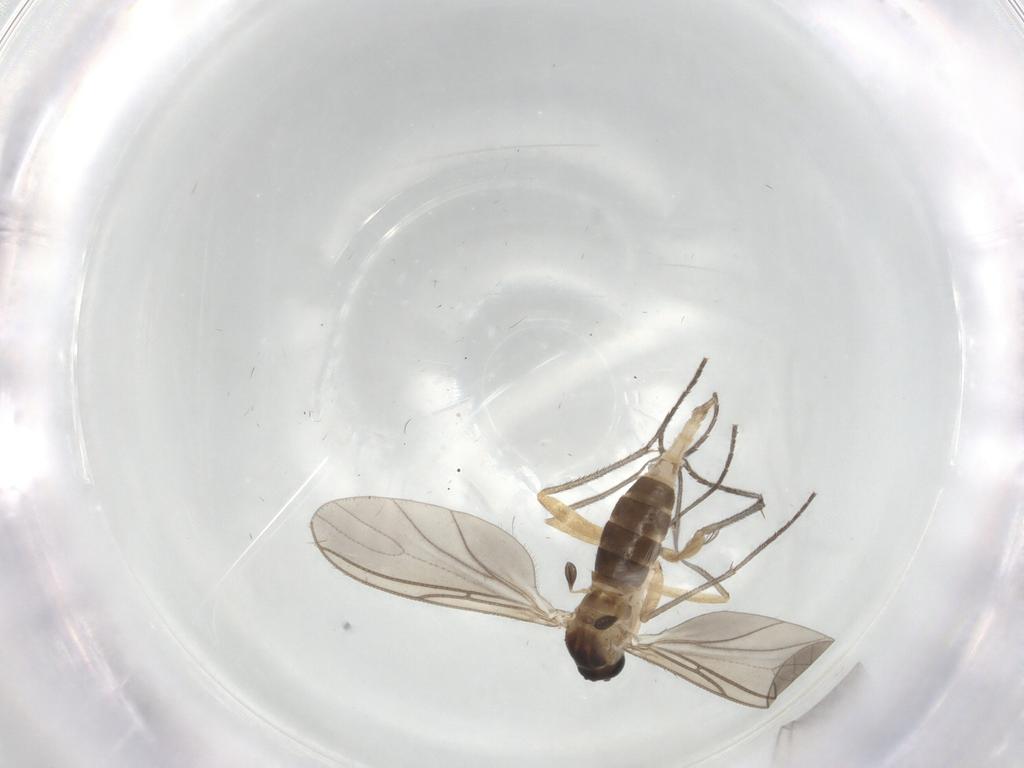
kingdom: Animalia
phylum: Arthropoda
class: Insecta
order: Diptera
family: Sciaridae
